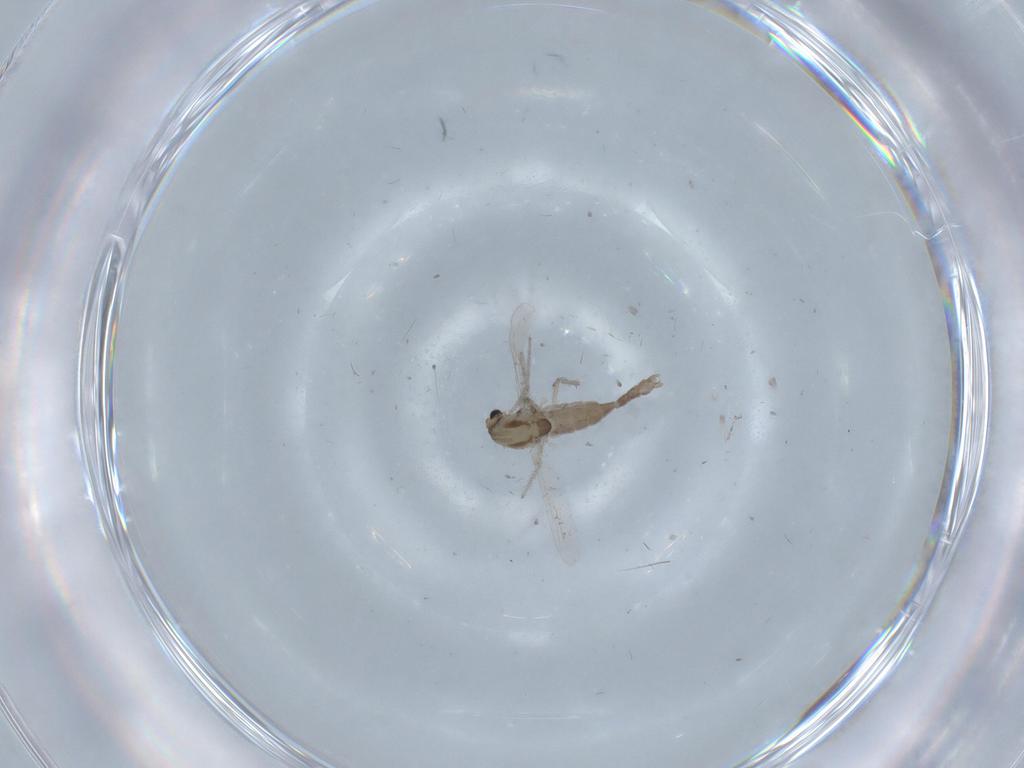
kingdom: Animalia
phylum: Arthropoda
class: Insecta
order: Diptera
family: Chironomidae
